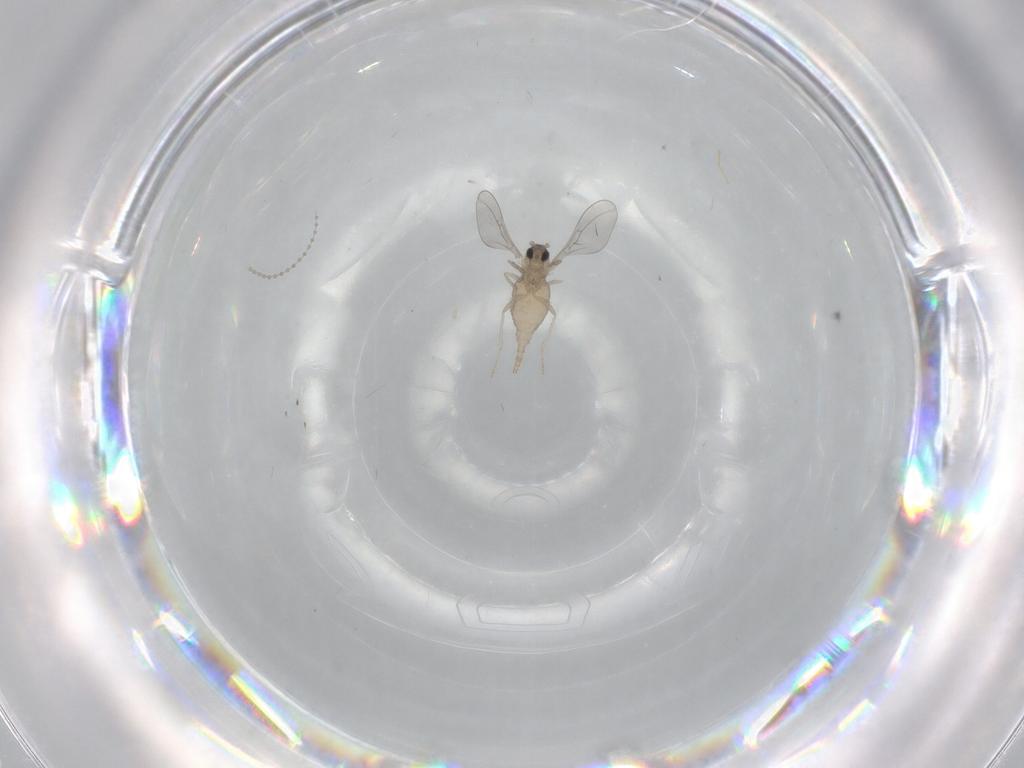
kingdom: Animalia
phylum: Arthropoda
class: Insecta
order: Diptera
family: Cecidomyiidae
